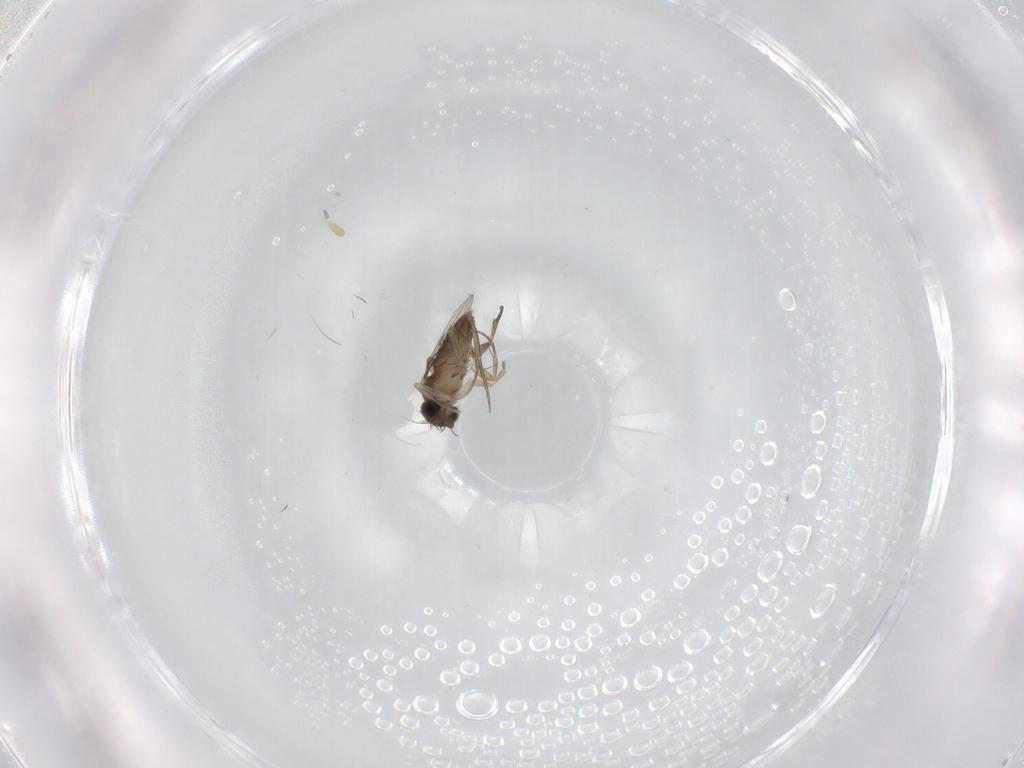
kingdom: Animalia
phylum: Arthropoda
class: Insecta
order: Diptera
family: Phoridae
